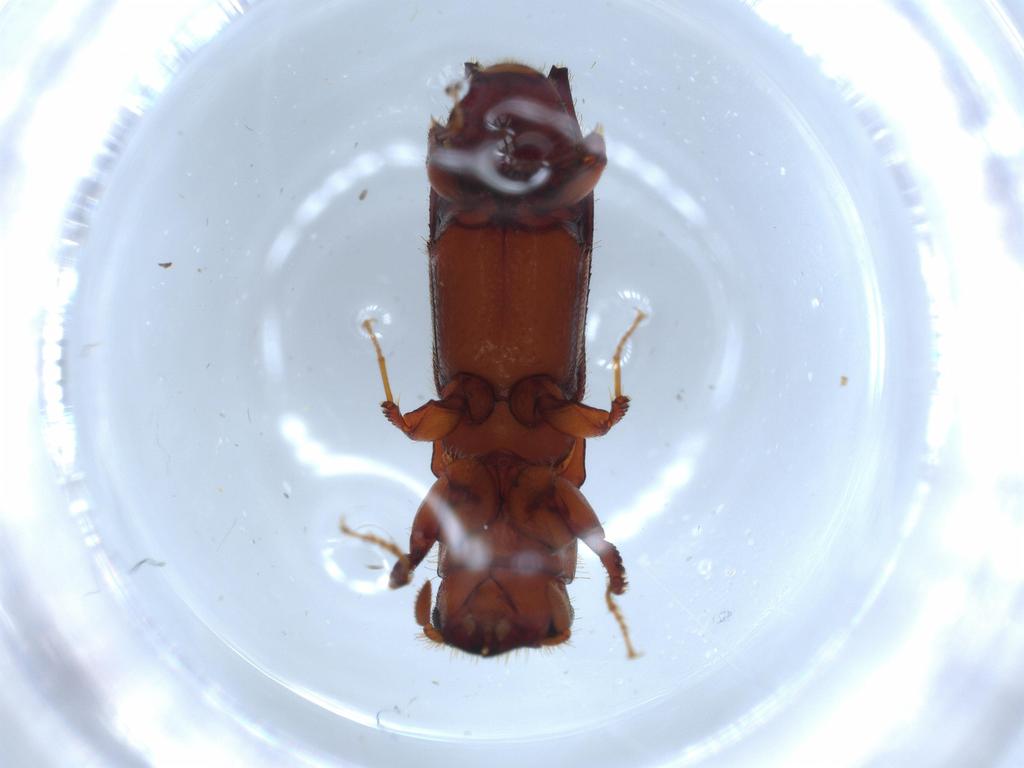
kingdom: Animalia
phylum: Arthropoda
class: Insecta
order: Coleoptera
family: Curculionidae
